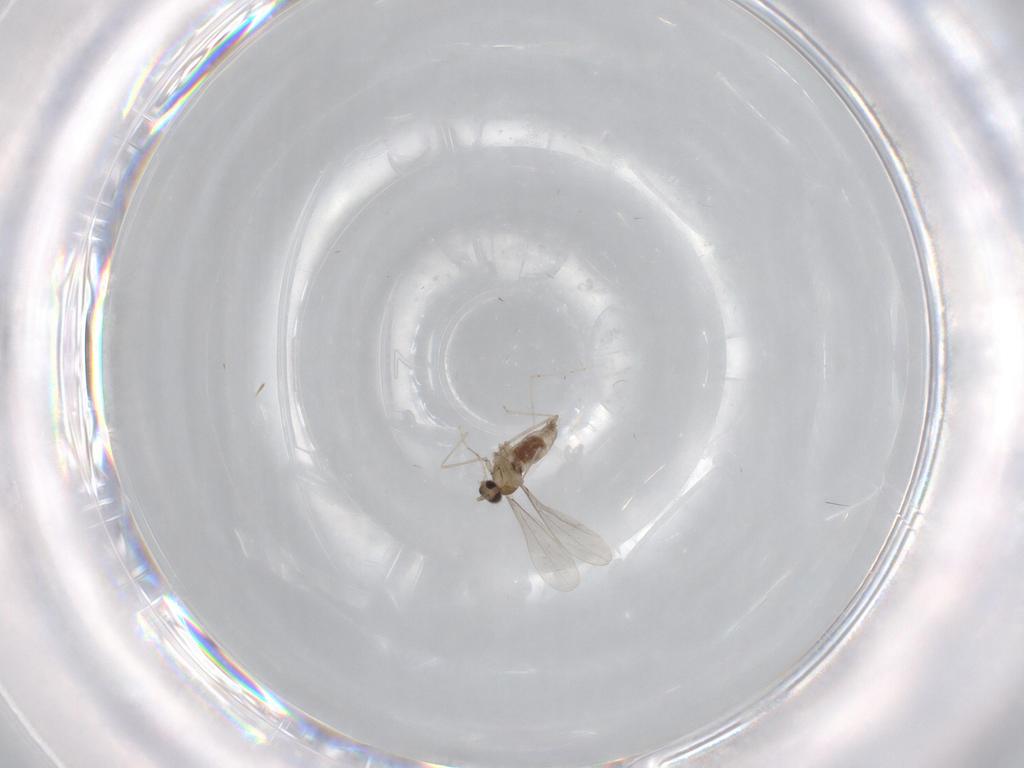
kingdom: Animalia
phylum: Arthropoda
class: Insecta
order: Diptera
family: Cecidomyiidae
